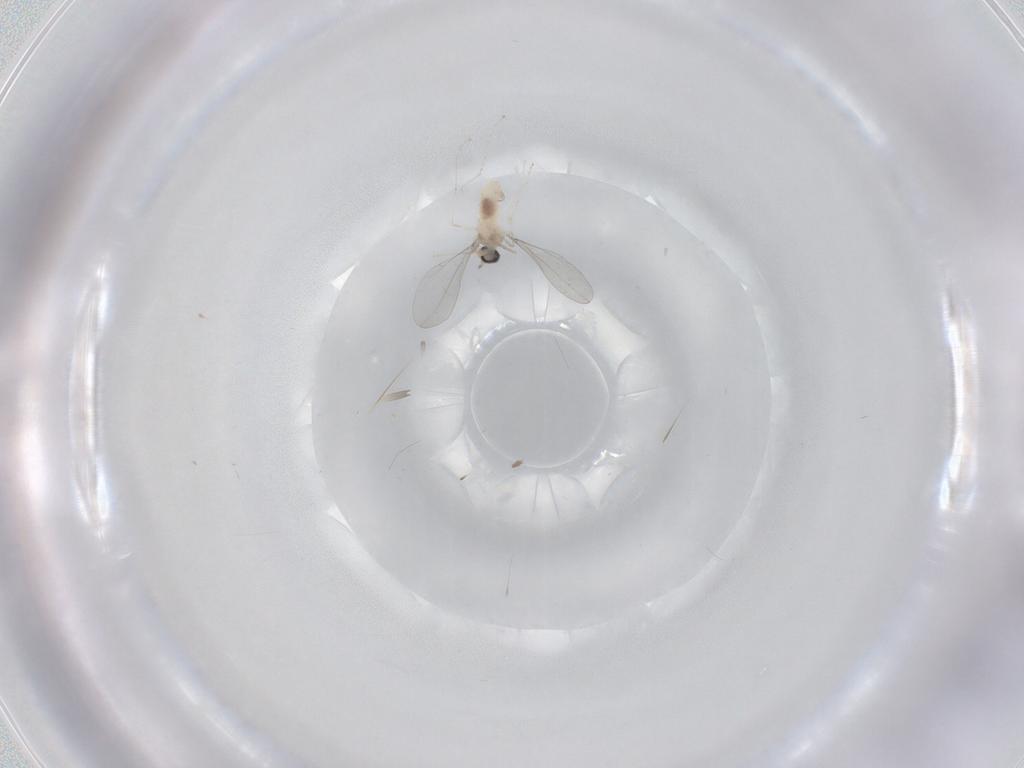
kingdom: Animalia
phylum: Arthropoda
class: Insecta
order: Diptera
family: Cecidomyiidae
